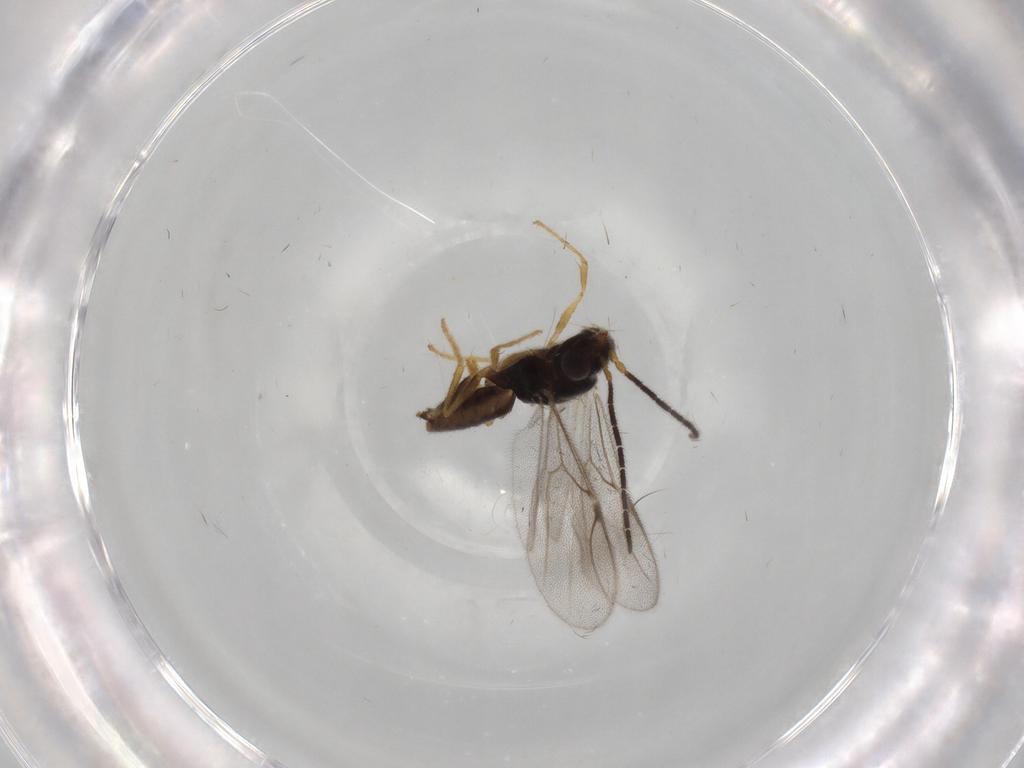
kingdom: Animalia
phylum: Arthropoda
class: Insecta
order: Hymenoptera
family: Dryinidae
